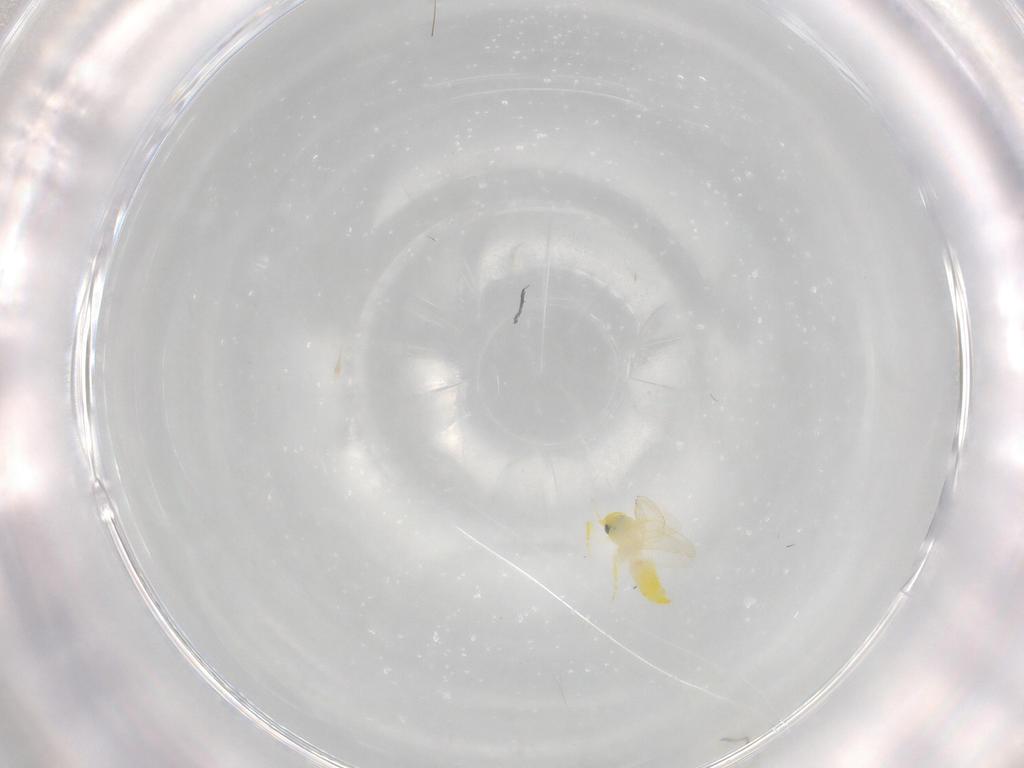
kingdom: Animalia
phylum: Arthropoda
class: Insecta
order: Hemiptera
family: Aleyrodidae
